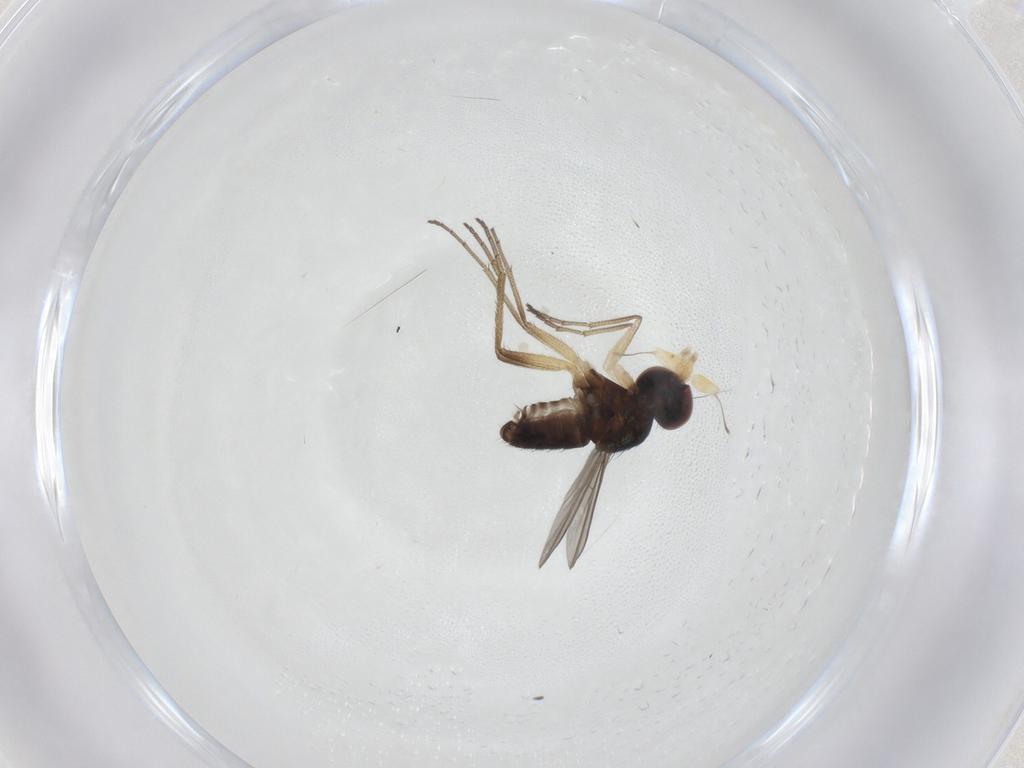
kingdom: Animalia
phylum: Arthropoda
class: Insecta
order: Diptera
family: Dolichopodidae
